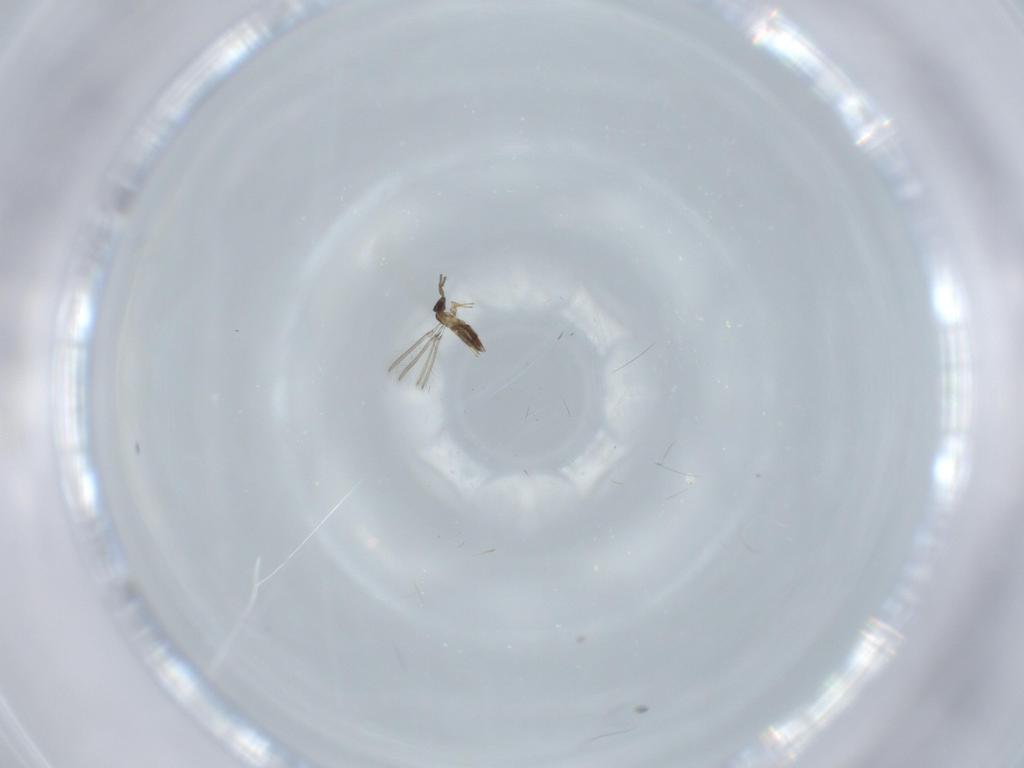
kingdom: Animalia
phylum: Arthropoda
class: Insecta
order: Hymenoptera
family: Mymaridae
